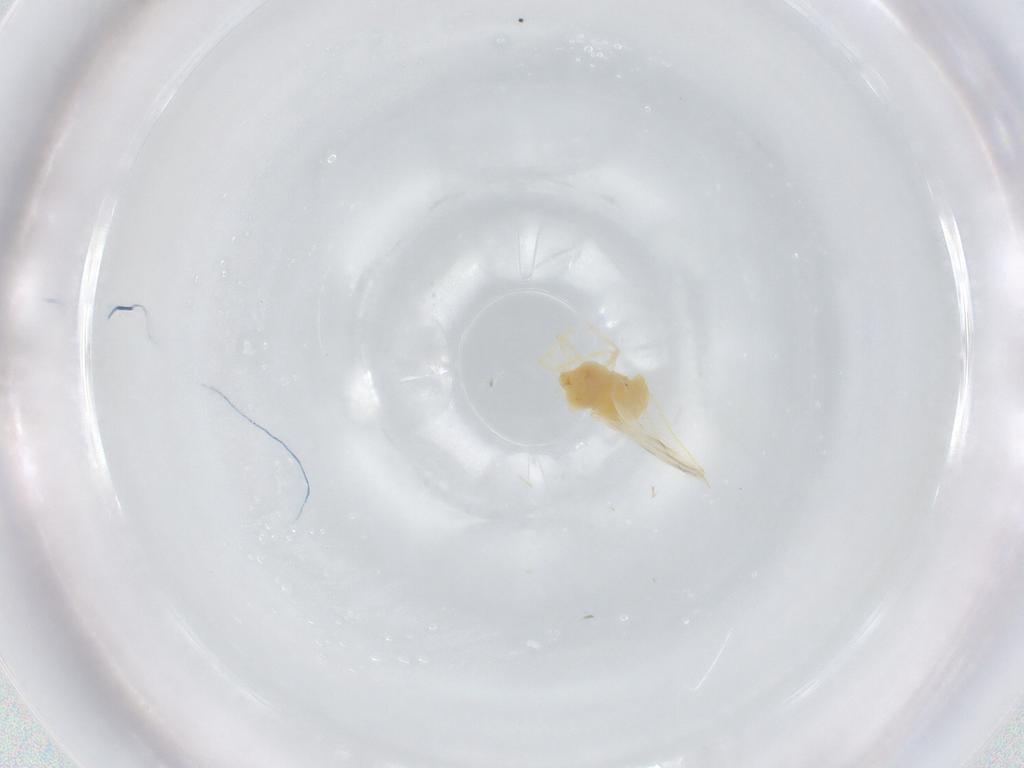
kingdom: Animalia
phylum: Arthropoda
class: Insecta
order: Hemiptera
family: Aleyrodidae
